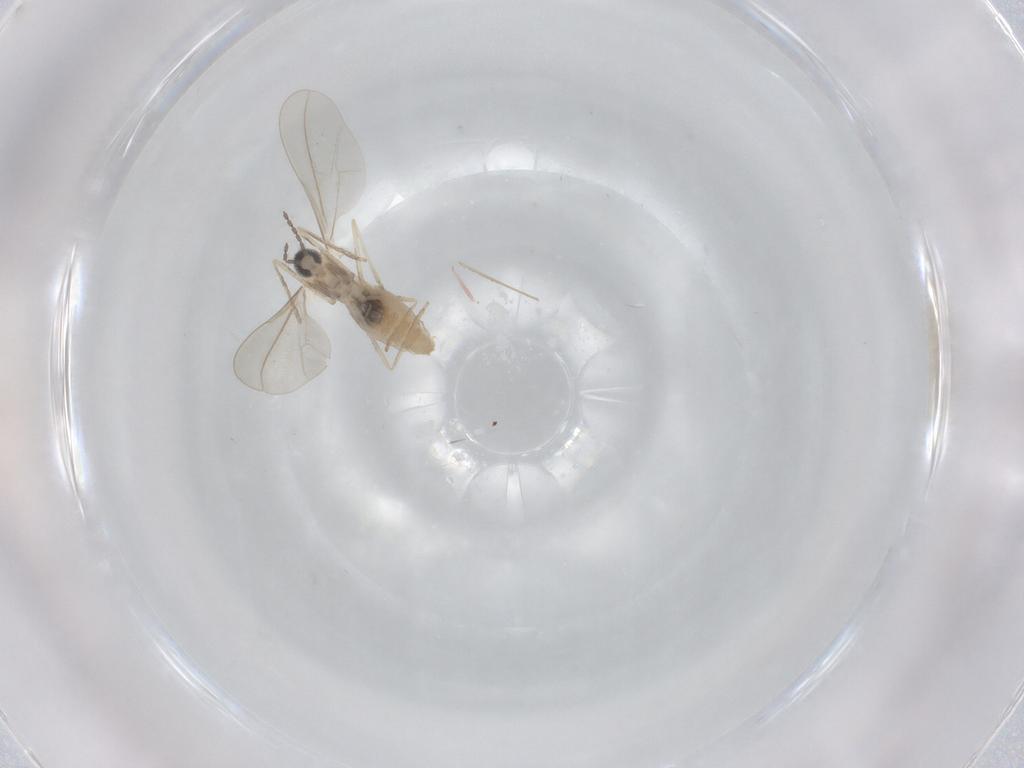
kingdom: Animalia
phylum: Arthropoda
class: Insecta
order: Diptera
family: Cecidomyiidae
